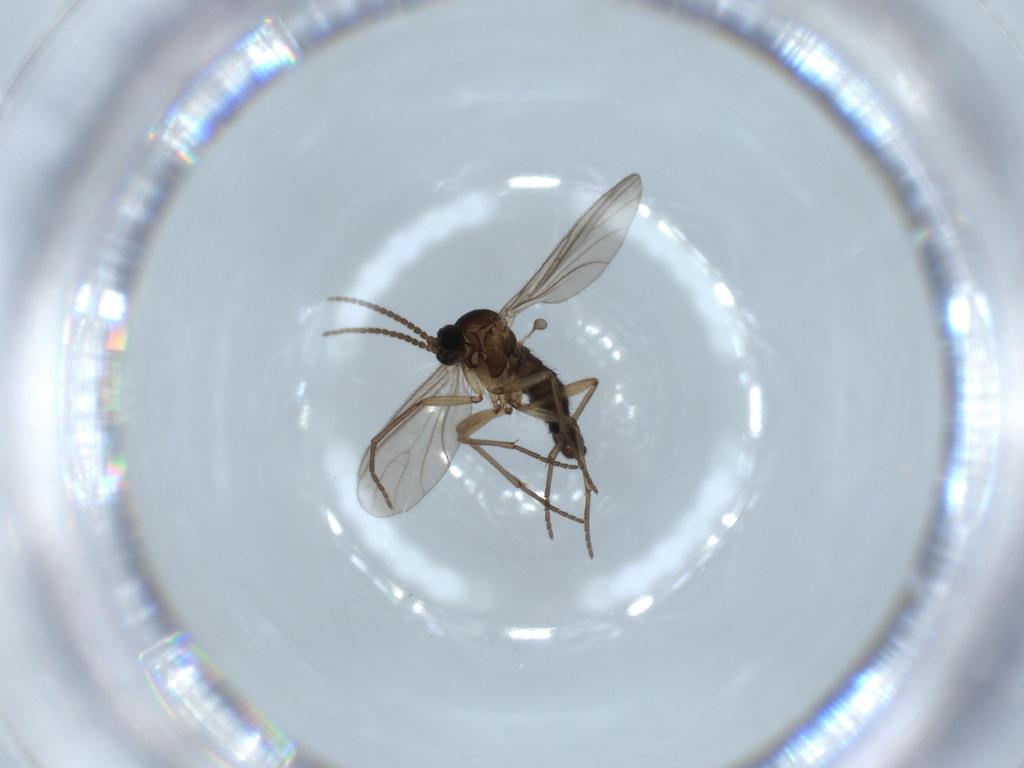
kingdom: Animalia
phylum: Arthropoda
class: Insecta
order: Diptera
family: Sciaridae
